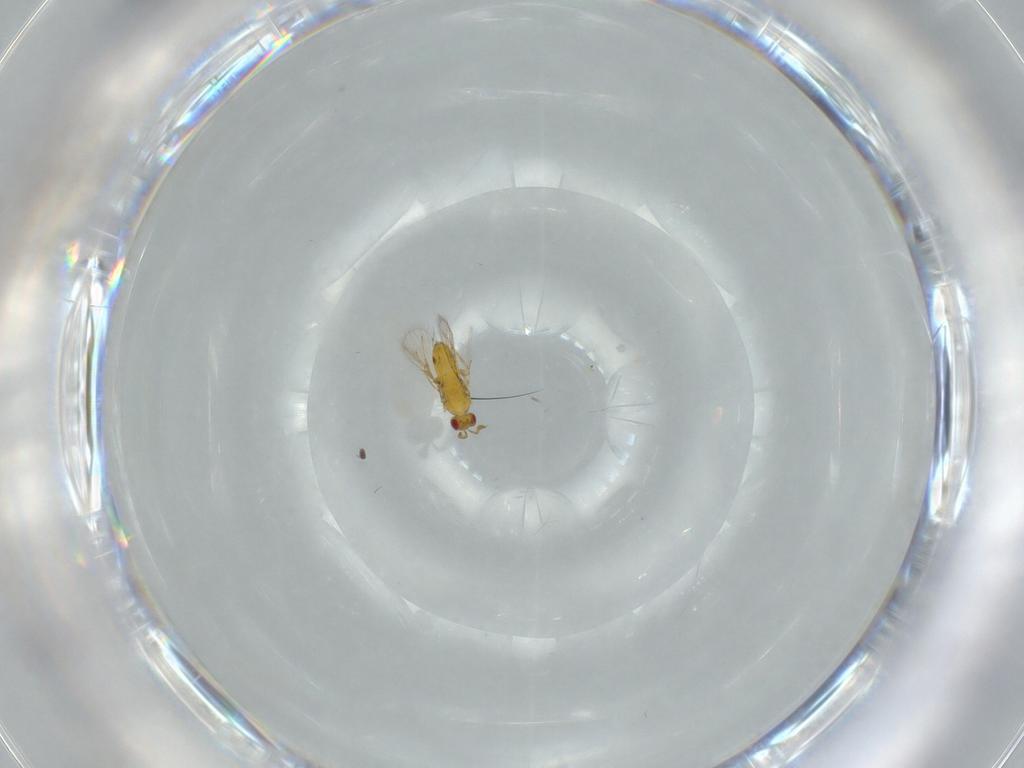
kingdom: Animalia
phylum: Arthropoda
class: Insecta
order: Hymenoptera
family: Trichogrammatidae
